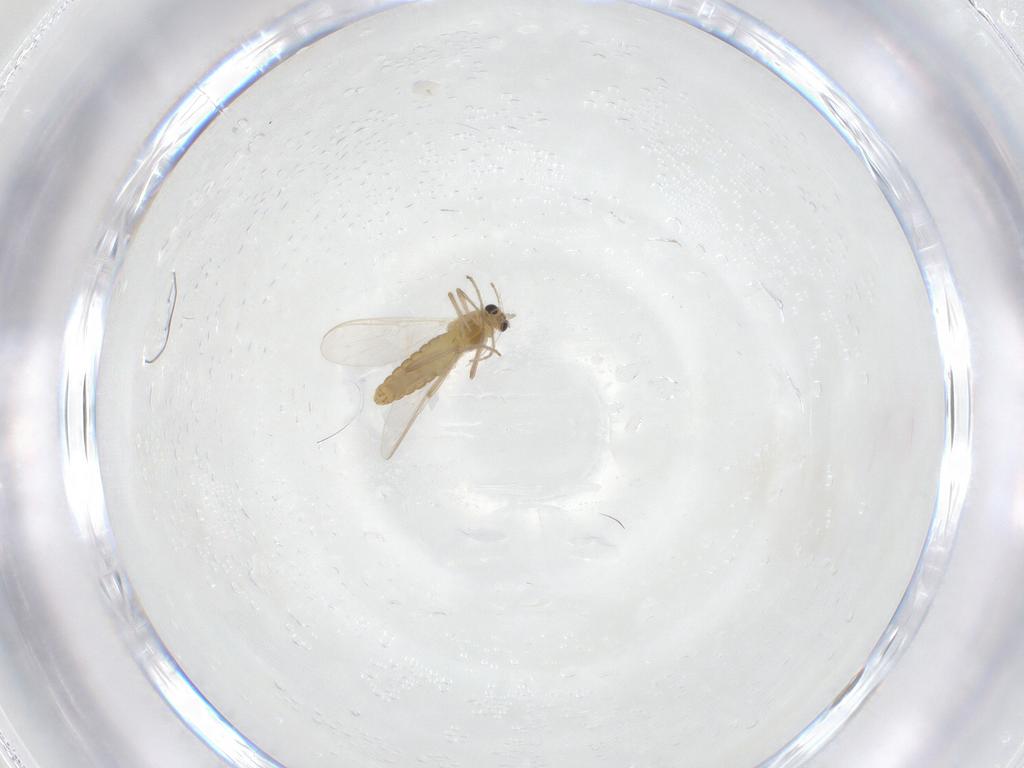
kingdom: Animalia
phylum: Arthropoda
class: Insecta
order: Diptera
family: Chironomidae
